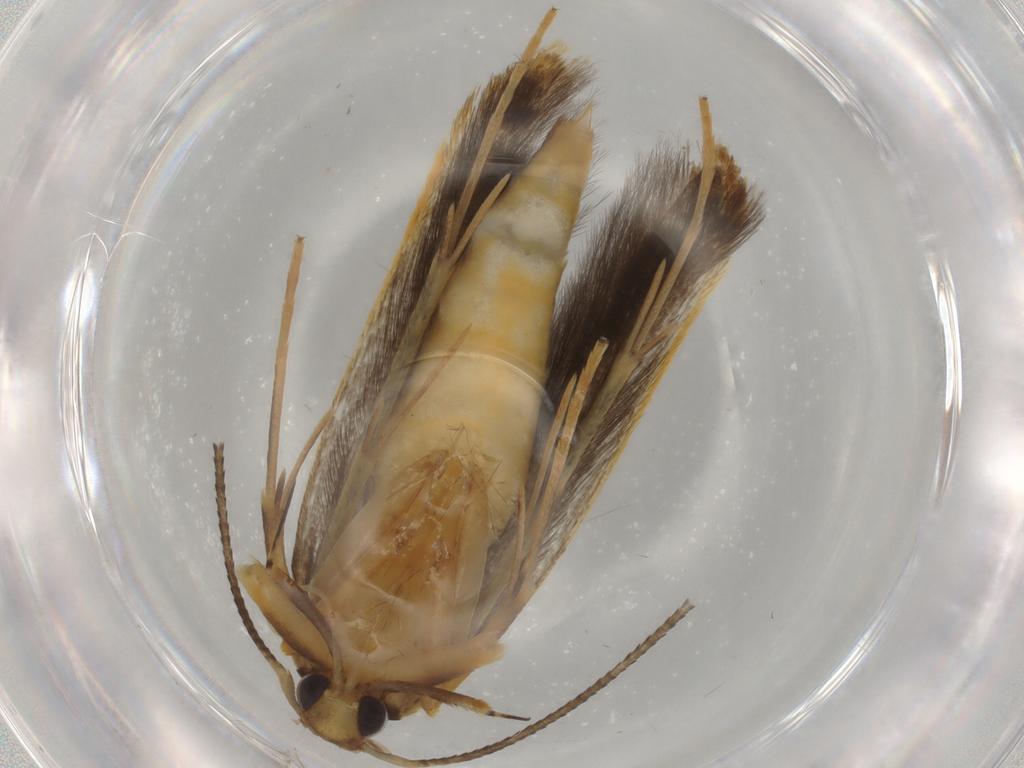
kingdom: Animalia
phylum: Arthropoda
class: Insecta
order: Lepidoptera
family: Pterolonchidae
